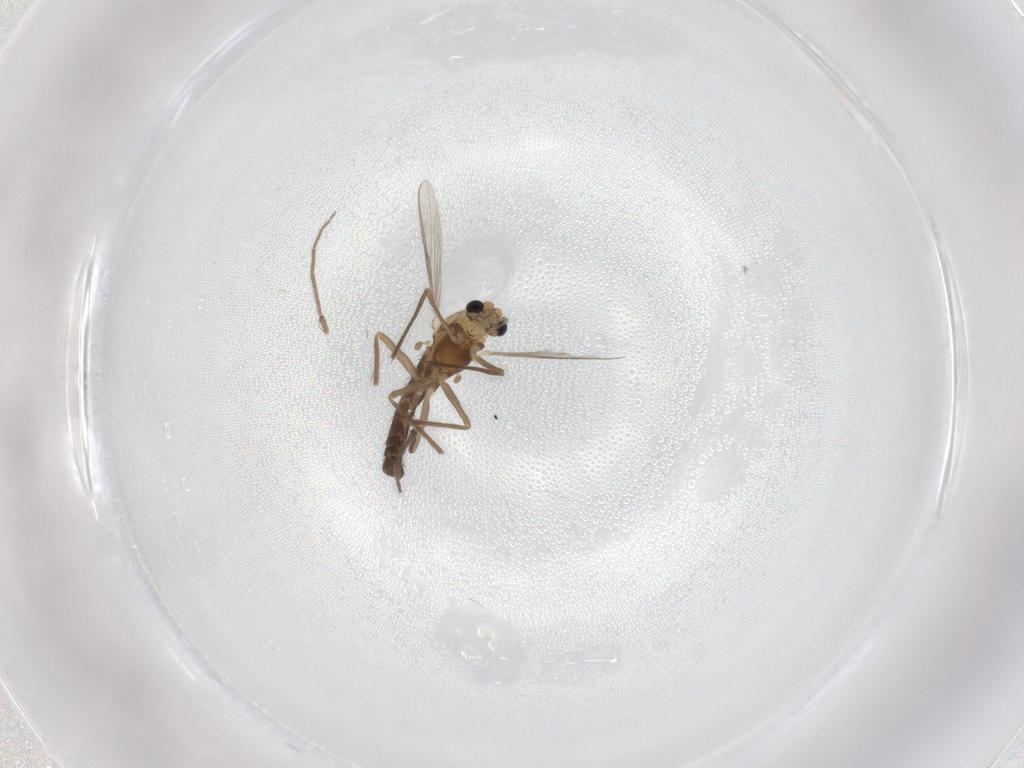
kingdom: Animalia
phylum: Arthropoda
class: Insecta
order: Diptera
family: Chironomidae
